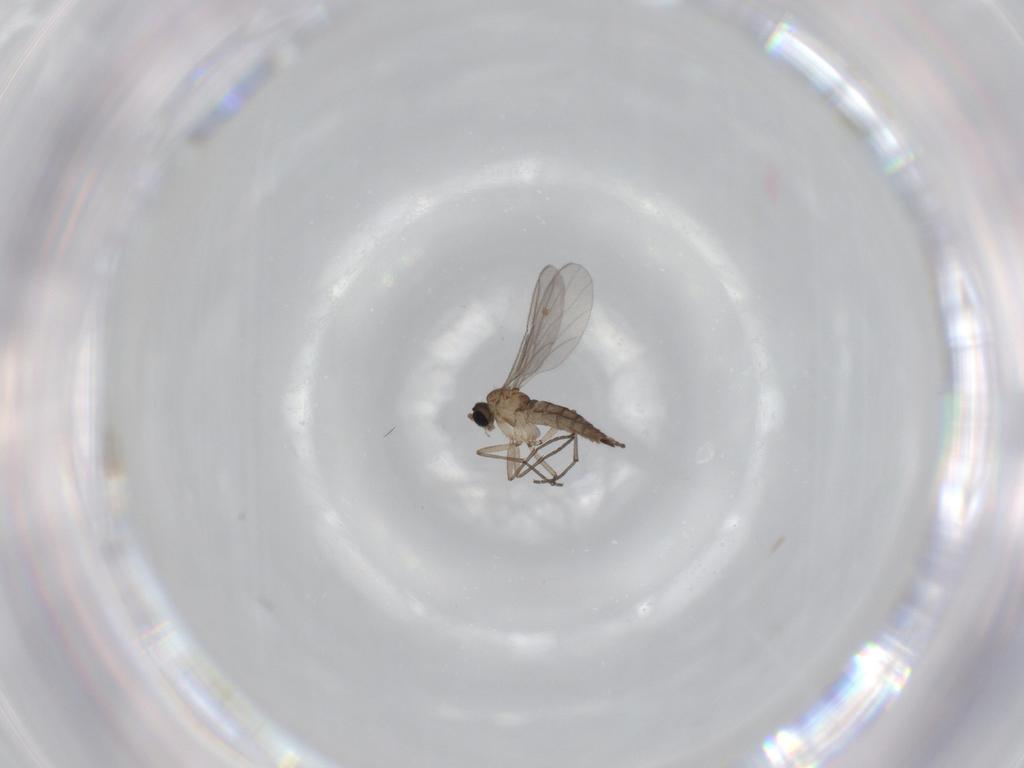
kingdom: Animalia
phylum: Arthropoda
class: Insecta
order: Diptera
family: Sciaridae
